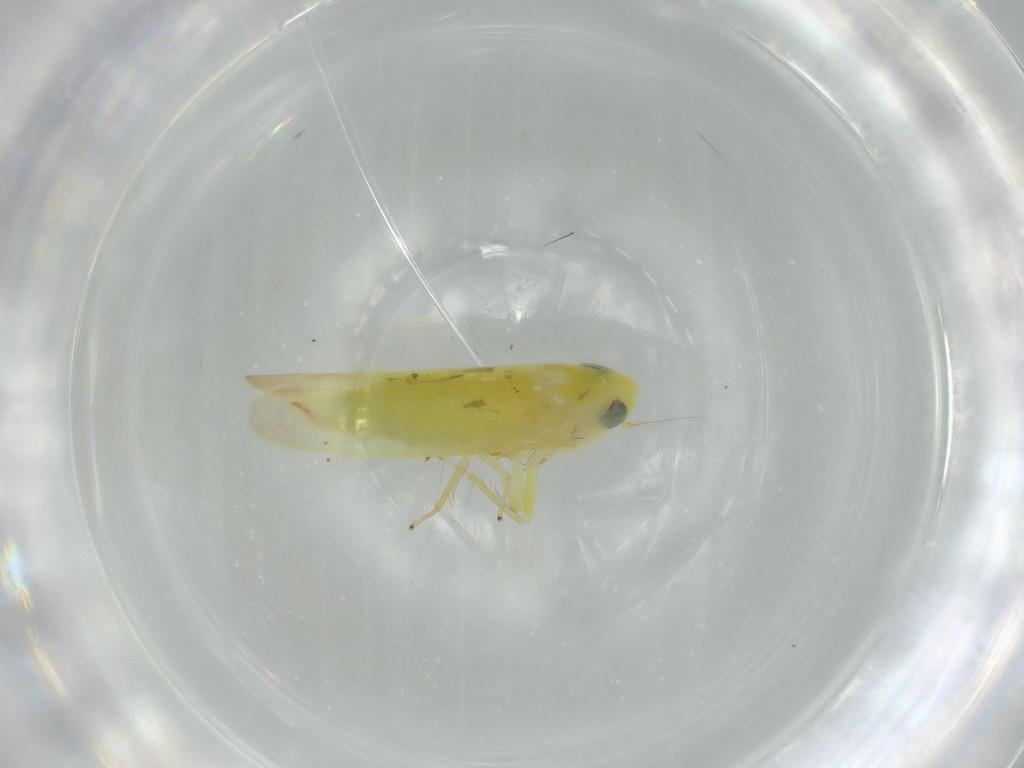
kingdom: Animalia
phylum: Arthropoda
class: Insecta
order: Hemiptera
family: Cicadellidae
